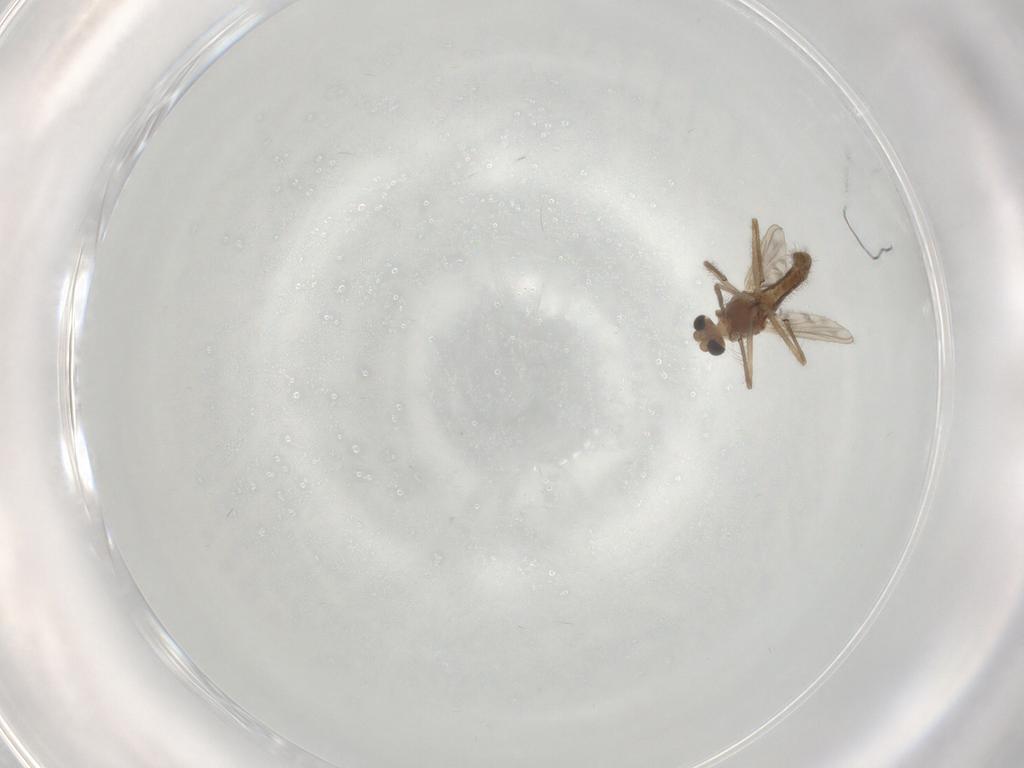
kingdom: Animalia
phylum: Arthropoda
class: Insecta
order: Diptera
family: Chironomidae
